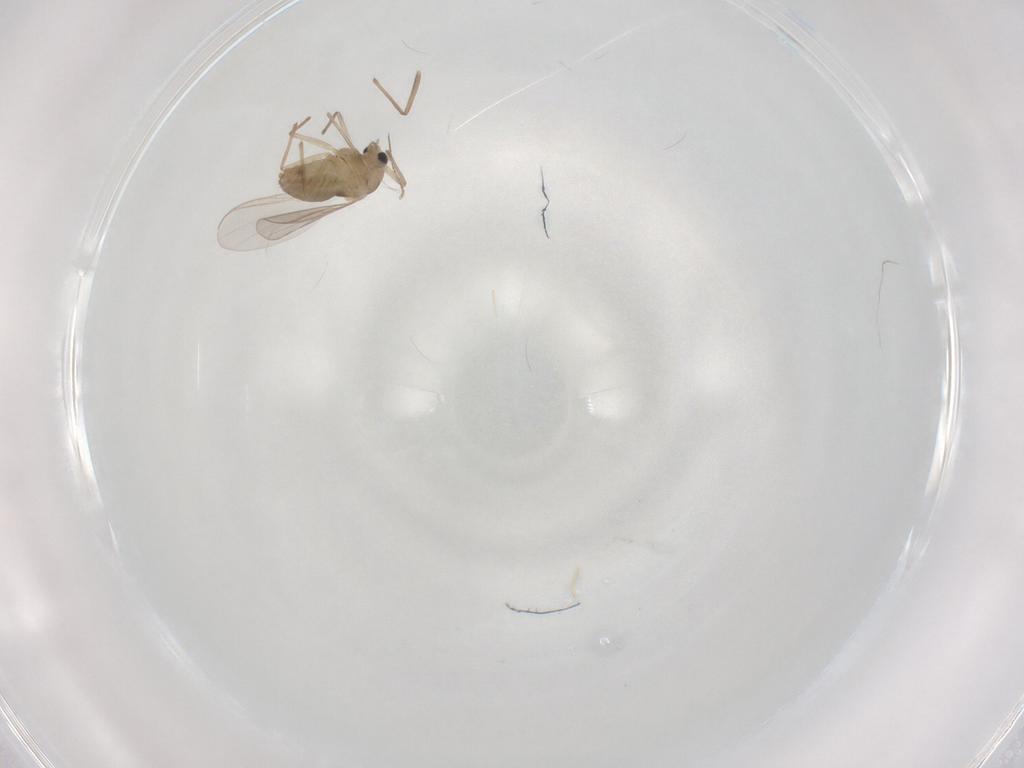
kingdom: Animalia
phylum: Arthropoda
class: Insecta
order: Diptera
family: Chironomidae
